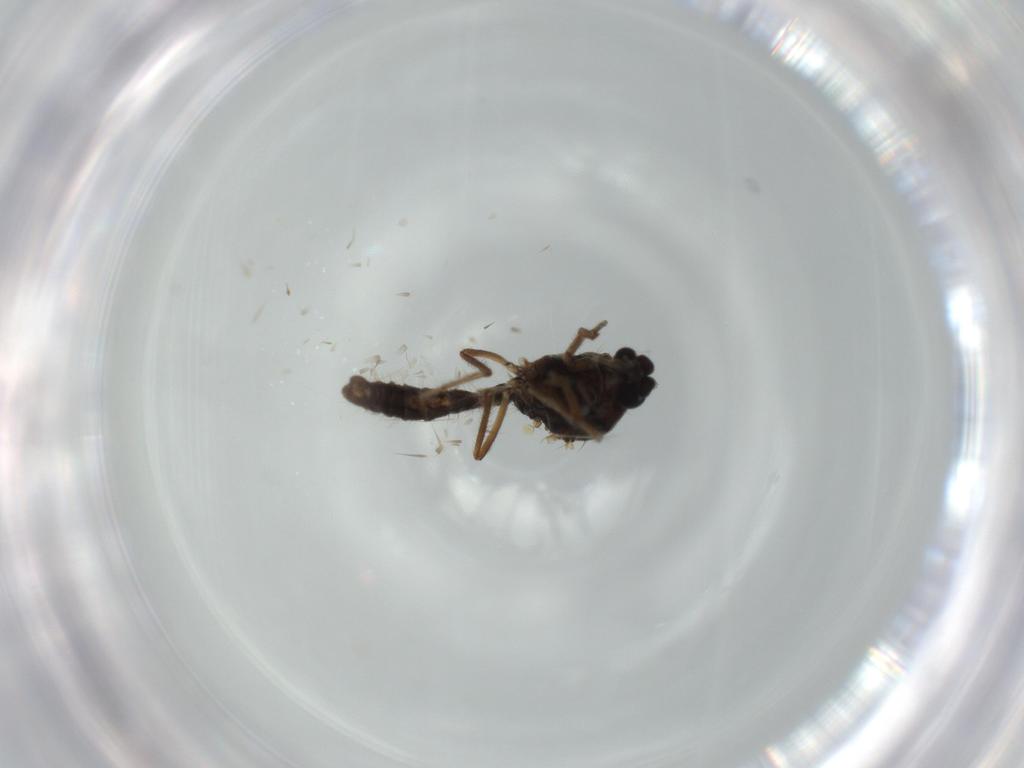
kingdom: Animalia
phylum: Arthropoda
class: Insecta
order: Diptera
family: Ceratopogonidae
